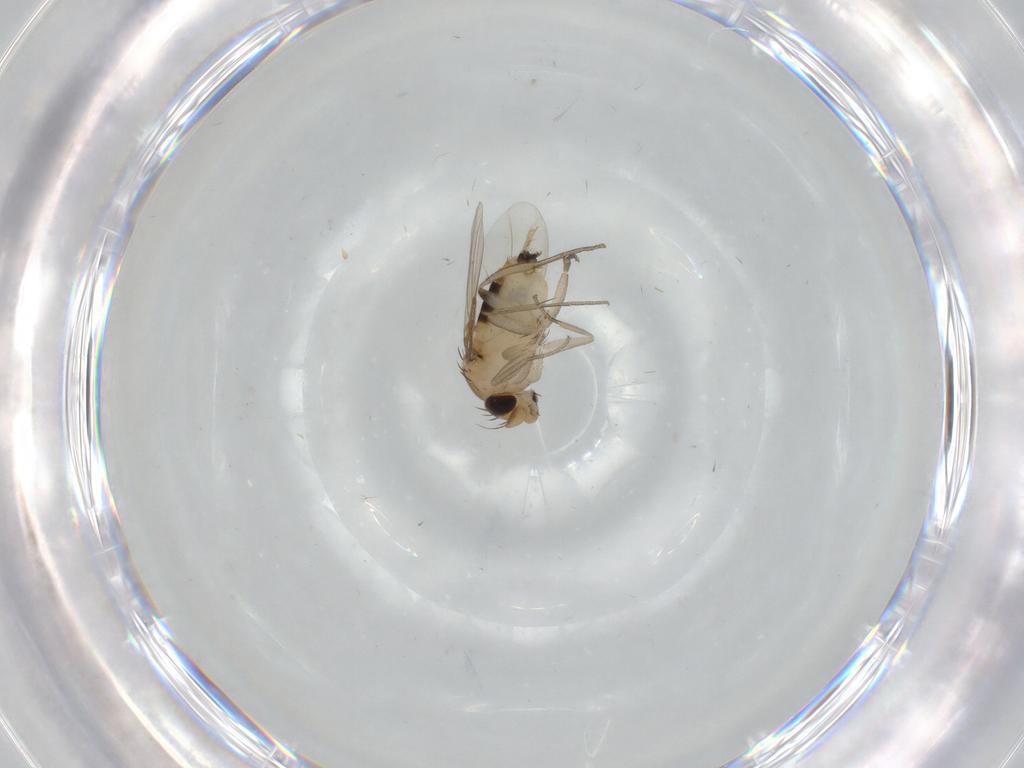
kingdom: Animalia
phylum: Arthropoda
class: Insecta
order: Diptera
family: Phoridae
